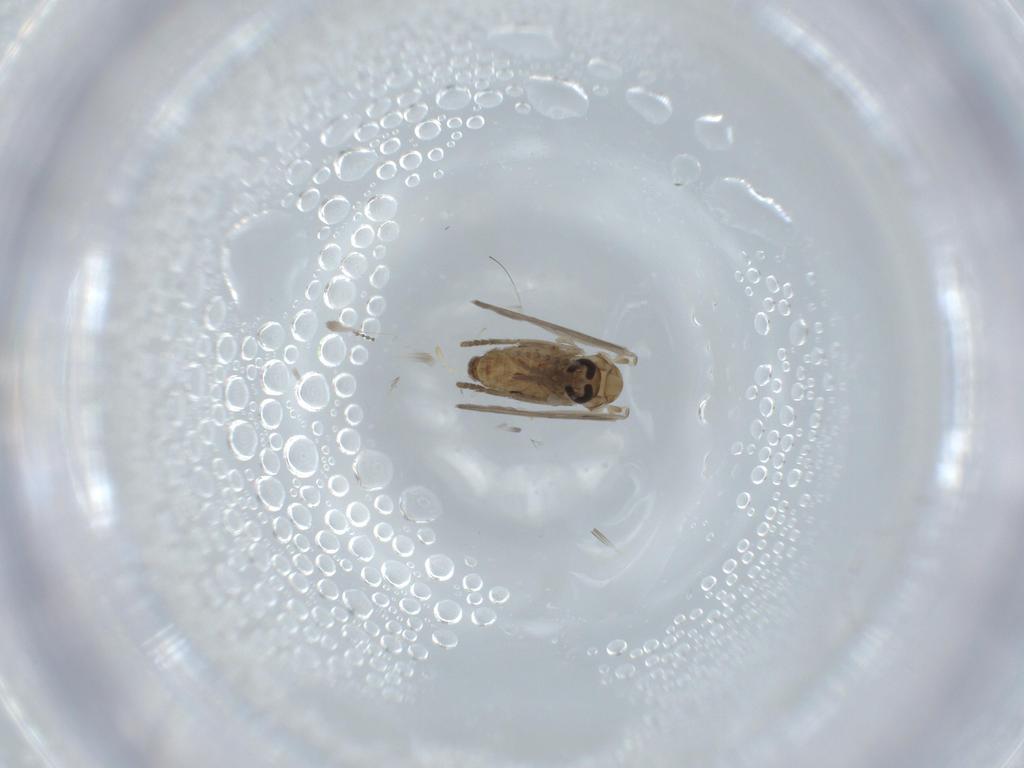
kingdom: Animalia
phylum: Arthropoda
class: Insecta
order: Diptera
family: Psychodidae
